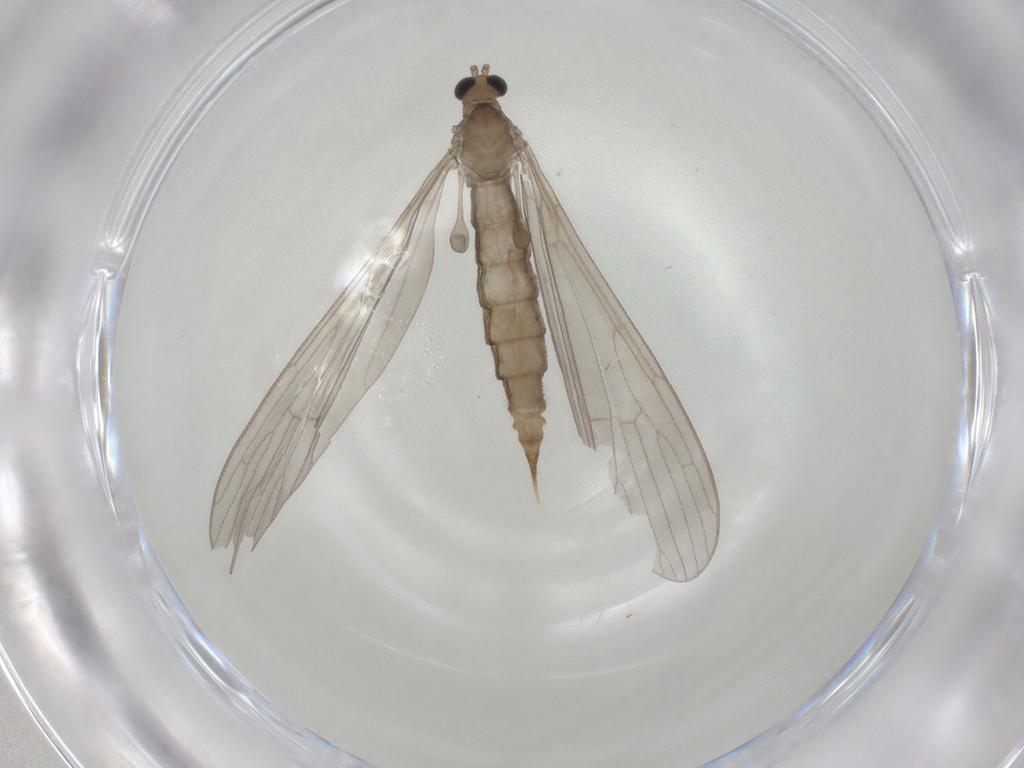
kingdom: Animalia
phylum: Arthropoda
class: Insecta
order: Diptera
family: Limoniidae
